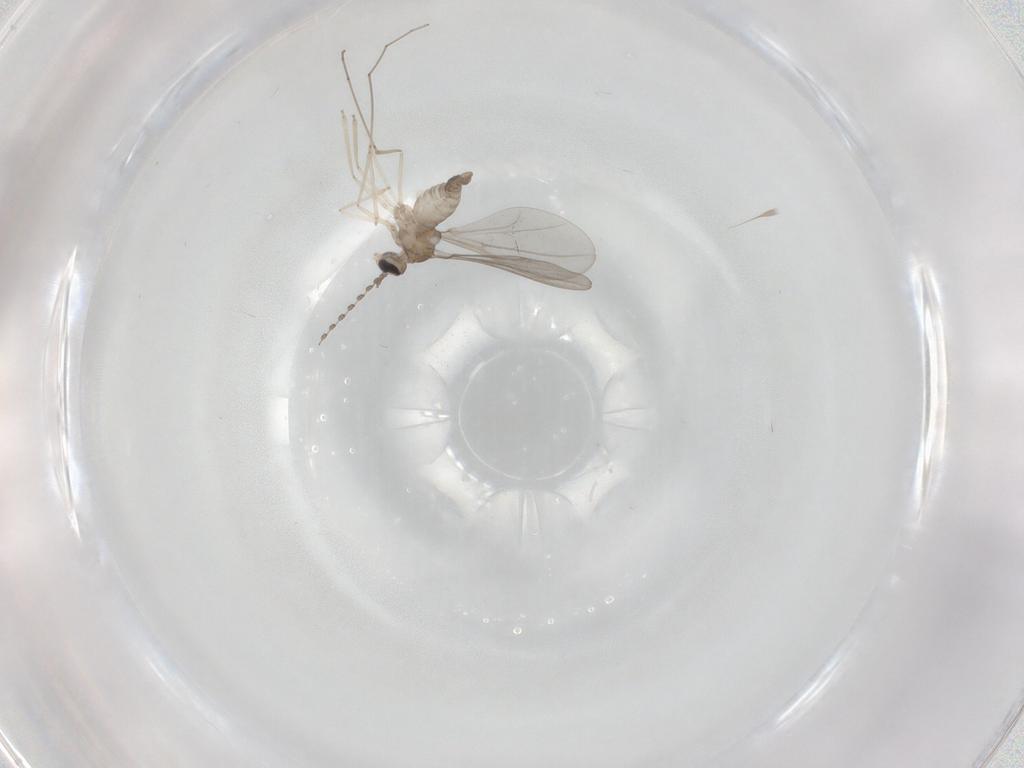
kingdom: Animalia
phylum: Arthropoda
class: Insecta
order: Diptera
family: Cecidomyiidae
